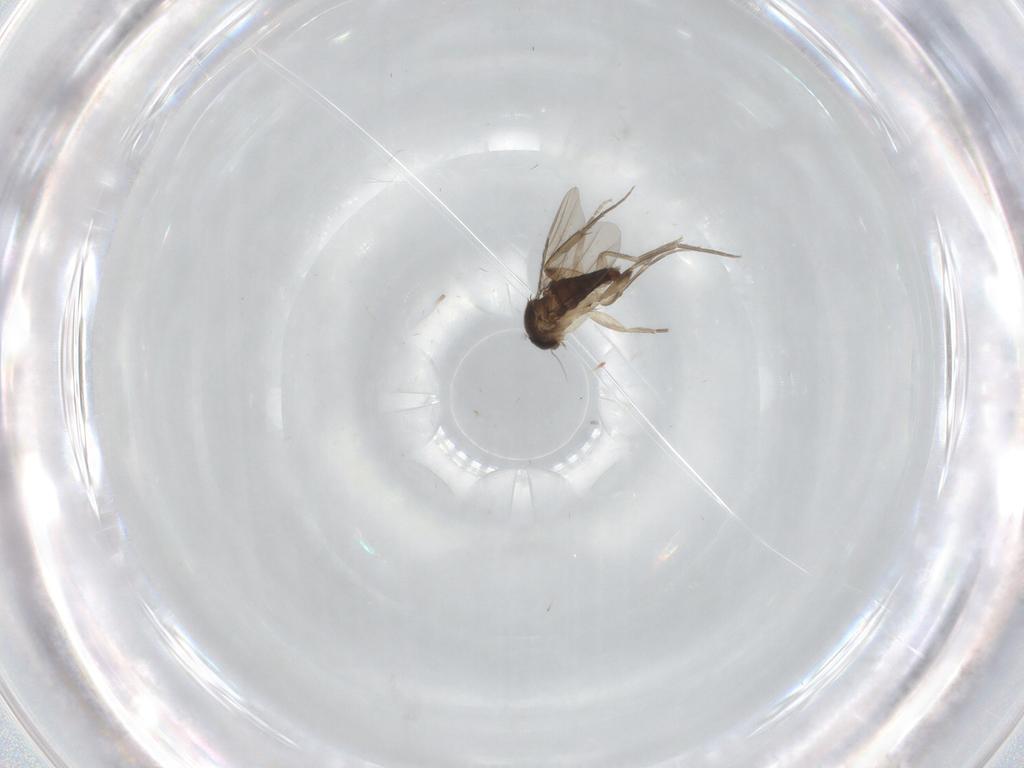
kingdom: Animalia
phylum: Arthropoda
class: Insecta
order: Diptera
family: Phoridae
